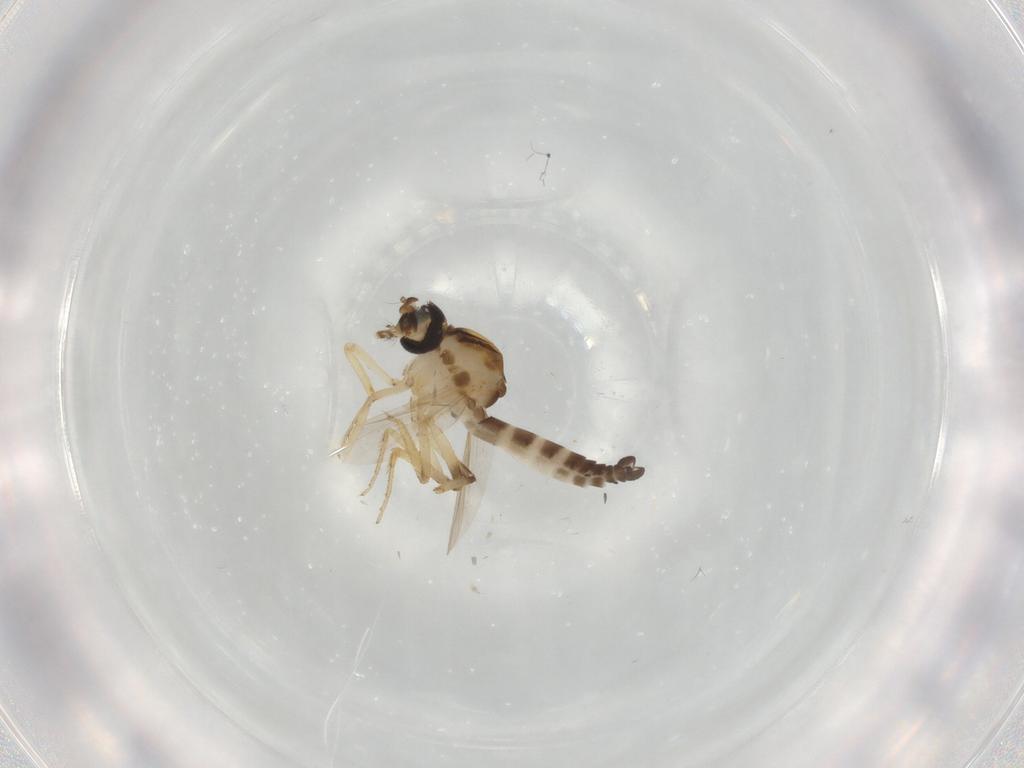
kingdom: Animalia
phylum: Arthropoda
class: Insecta
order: Diptera
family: Ceratopogonidae
